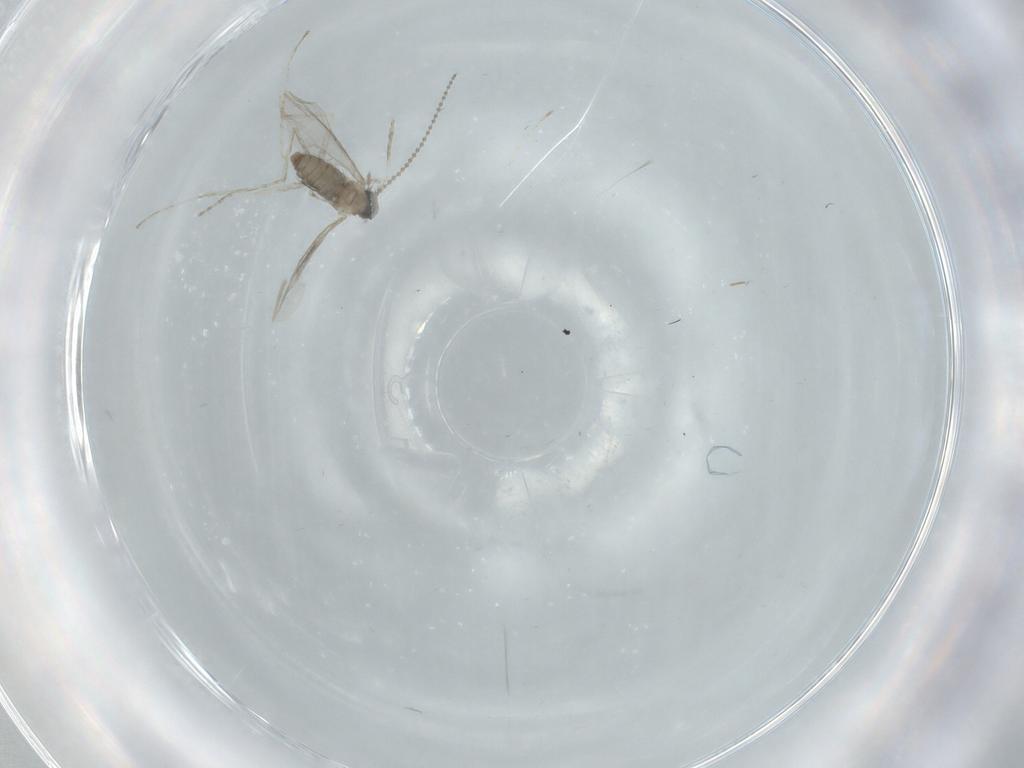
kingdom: Animalia
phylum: Arthropoda
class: Insecta
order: Diptera
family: Cecidomyiidae
